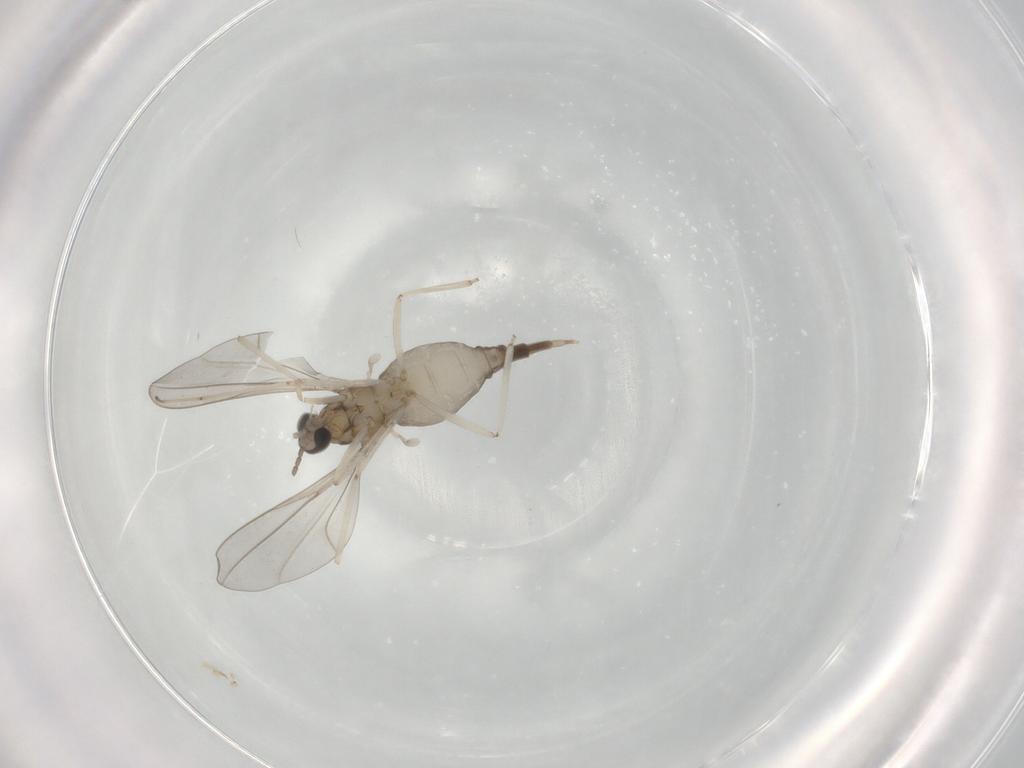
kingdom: Animalia
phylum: Arthropoda
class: Insecta
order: Diptera
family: Cecidomyiidae
